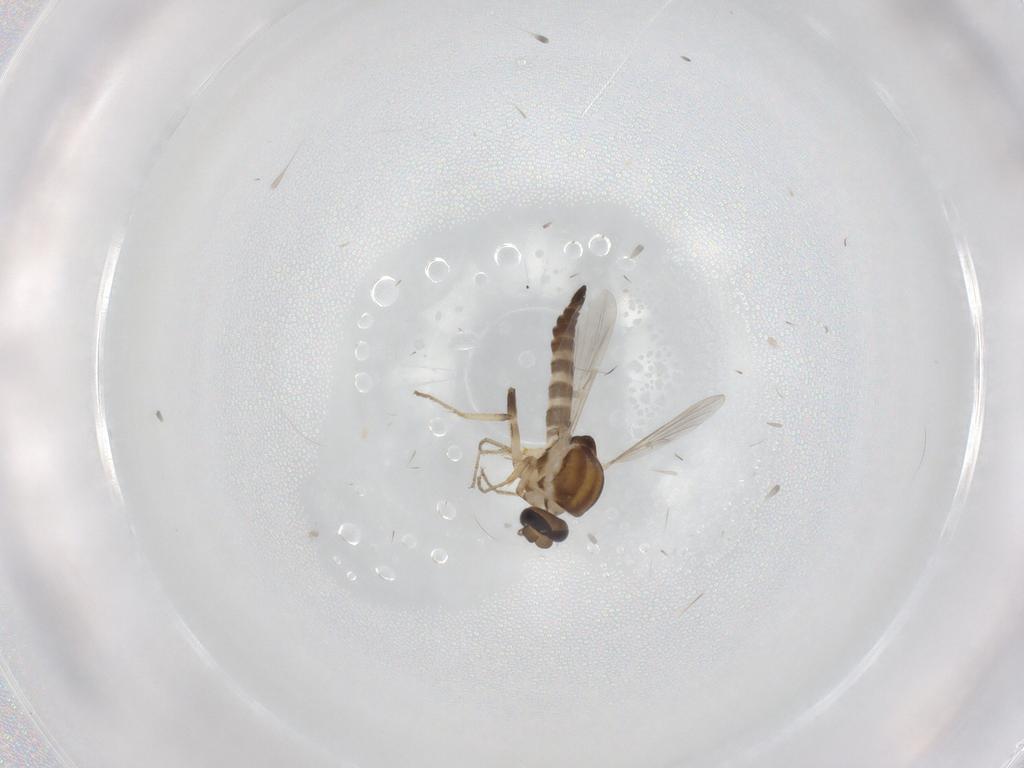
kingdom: Animalia
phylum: Arthropoda
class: Insecta
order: Diptera
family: Ceratopogonidae
